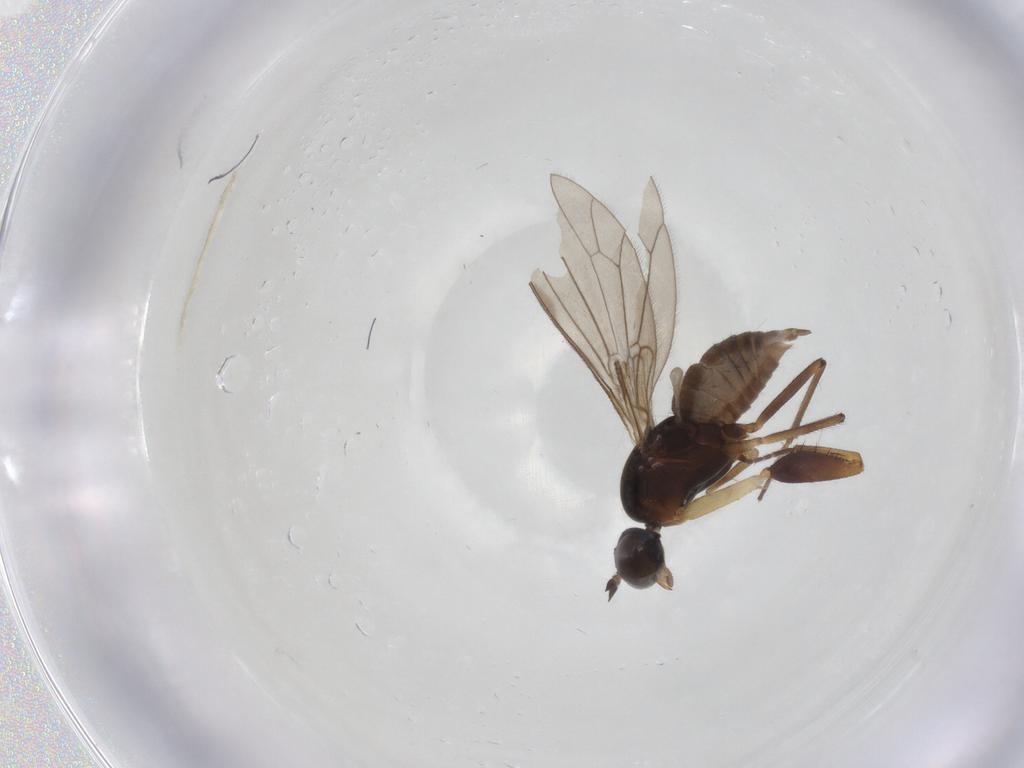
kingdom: Animalia
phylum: Arthropoda
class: Insecta
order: Diptera
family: Empididae
